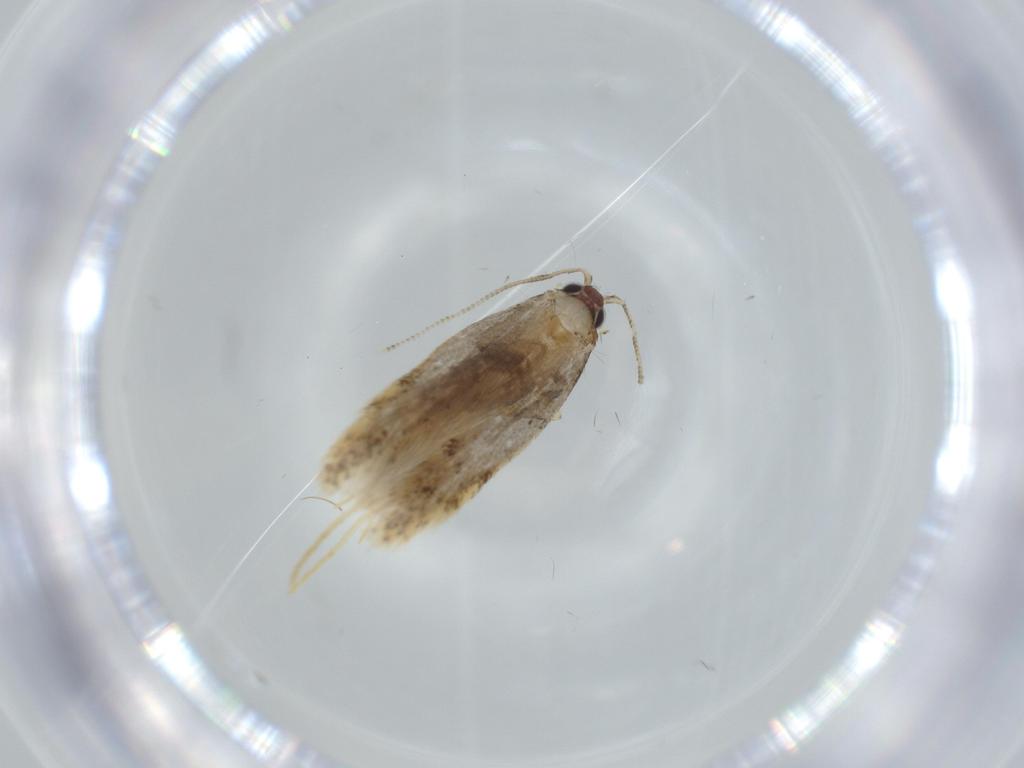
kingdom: Animalia
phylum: Arthropoda
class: Insecta
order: Lepidoptera
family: Tineidae
